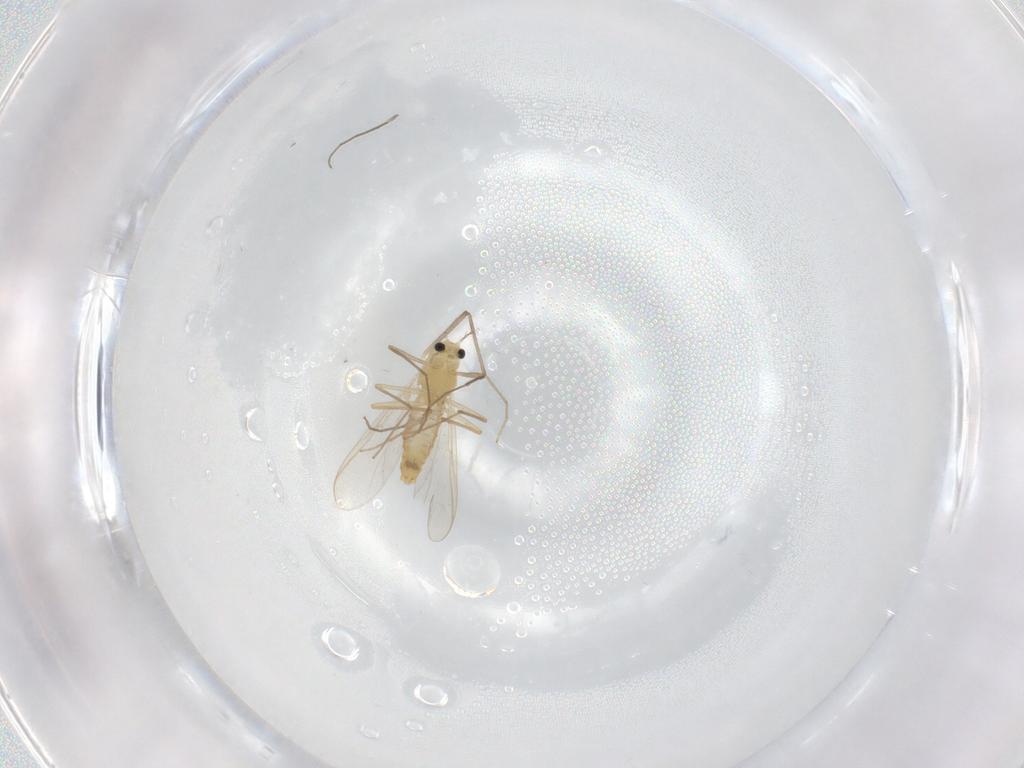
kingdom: Animalia
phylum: Arthropoda
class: Insecta
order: Diptera
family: Chironomidae
